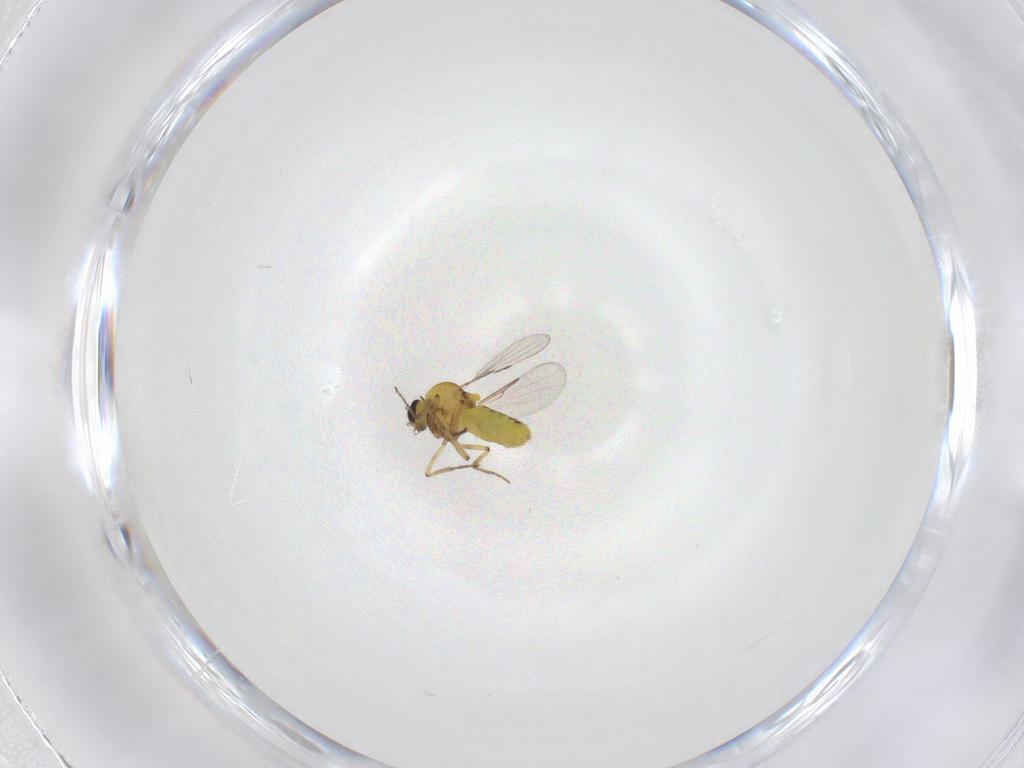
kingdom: Animalia
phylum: Arthropoda
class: Insecta
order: Diptera
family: Ceratopogonidae
